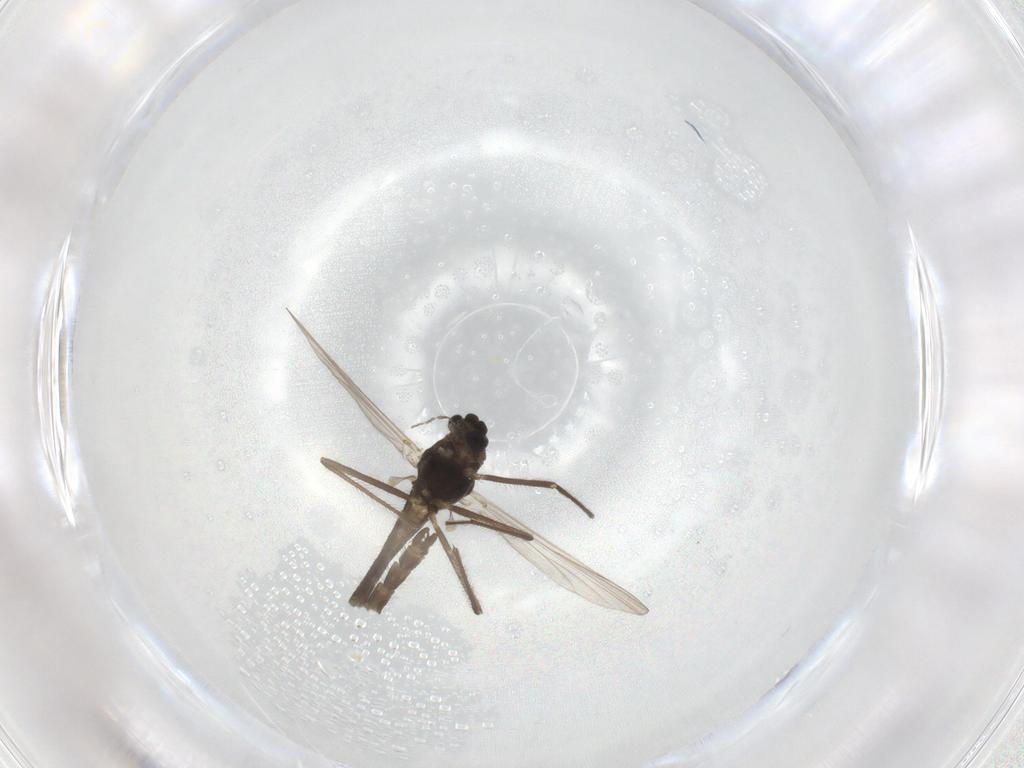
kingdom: Animalia
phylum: Arthropoda
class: Insecta
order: Diptera
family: Chironomidae
